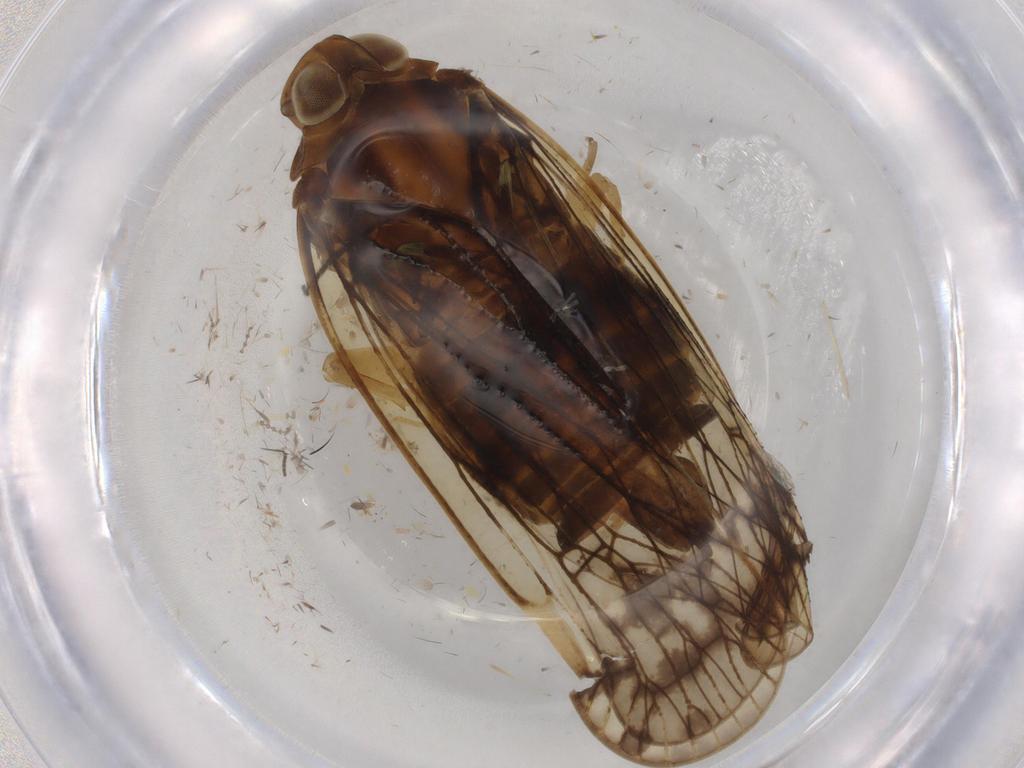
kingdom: Animalia
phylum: Arthropoda
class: Insecta
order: Hemiptera
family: Cixiidae
